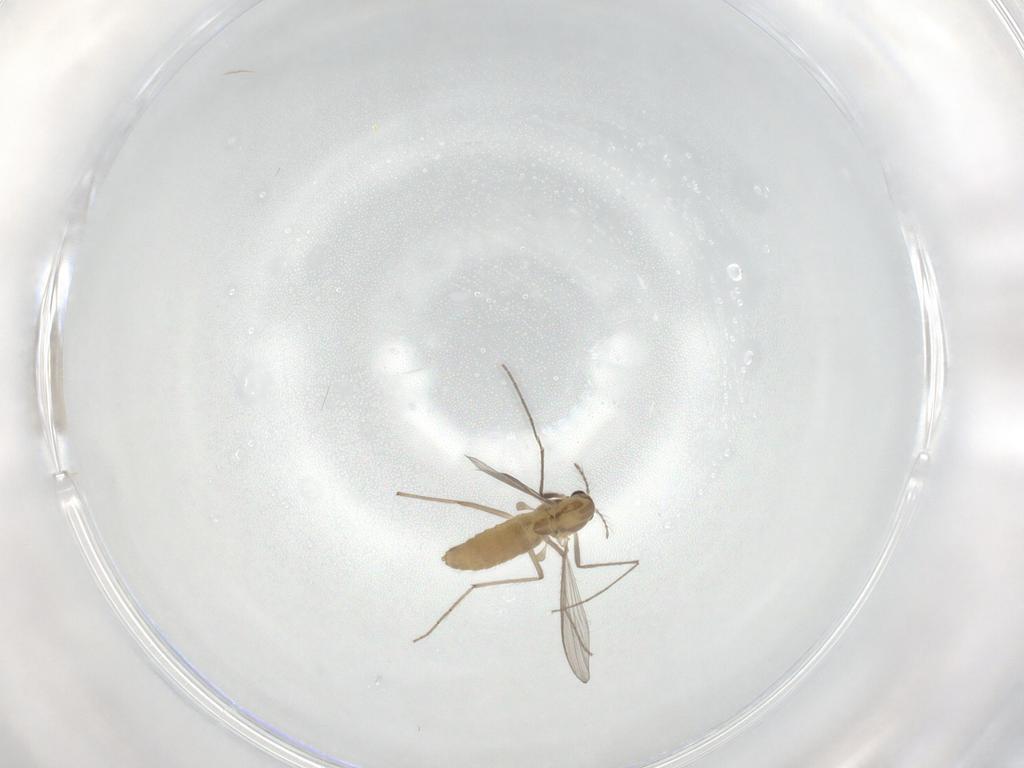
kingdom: Animalia
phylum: Arthropoda
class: Insecta
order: Diptera
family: Chironomidae
